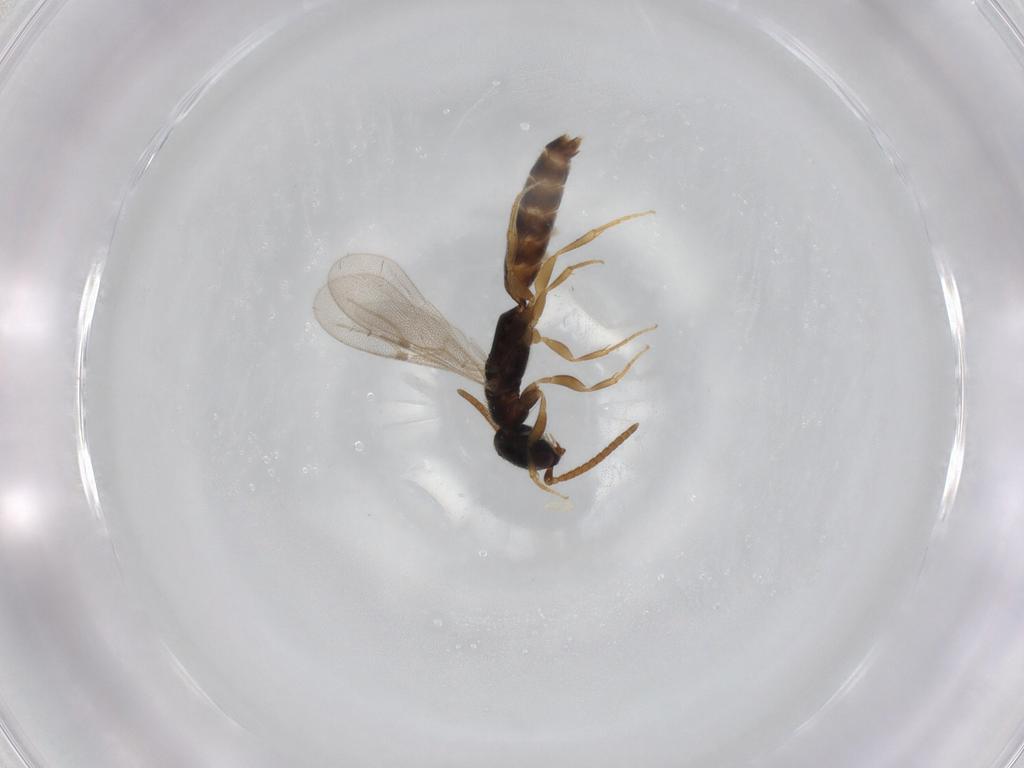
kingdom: Animalia
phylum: Arthropoda
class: Insecta
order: Hymenoptera
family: Bethylidae
